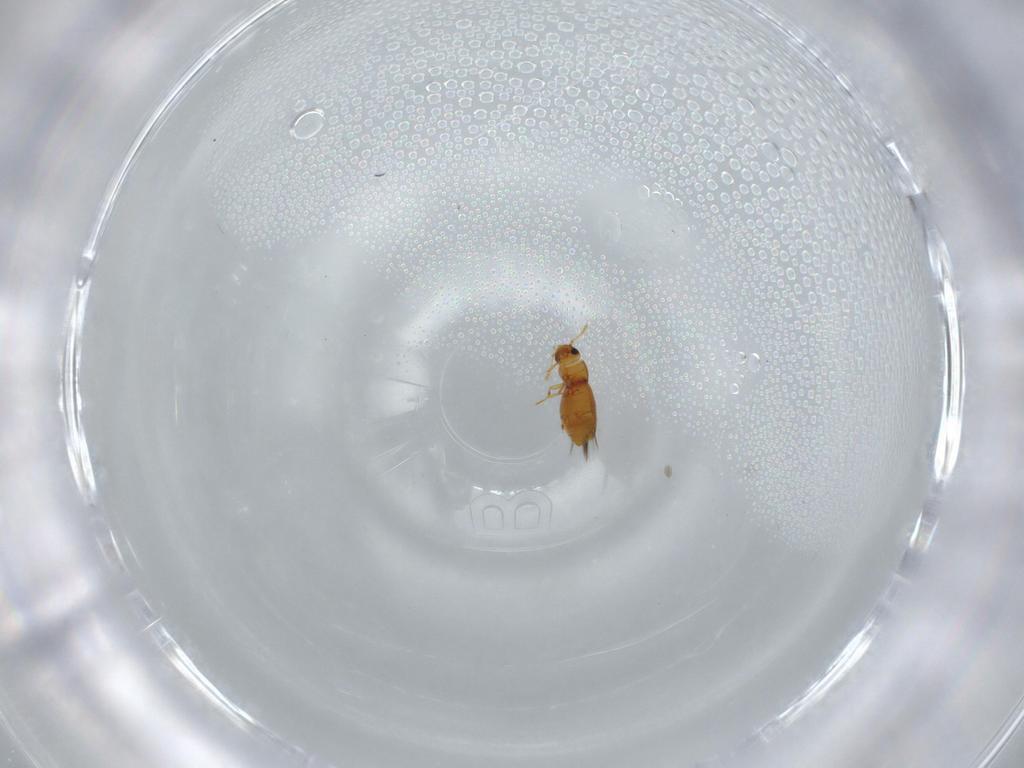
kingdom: Animalia
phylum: Arthropoda
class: Insecta
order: Coleoptera
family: Ptiliidae
